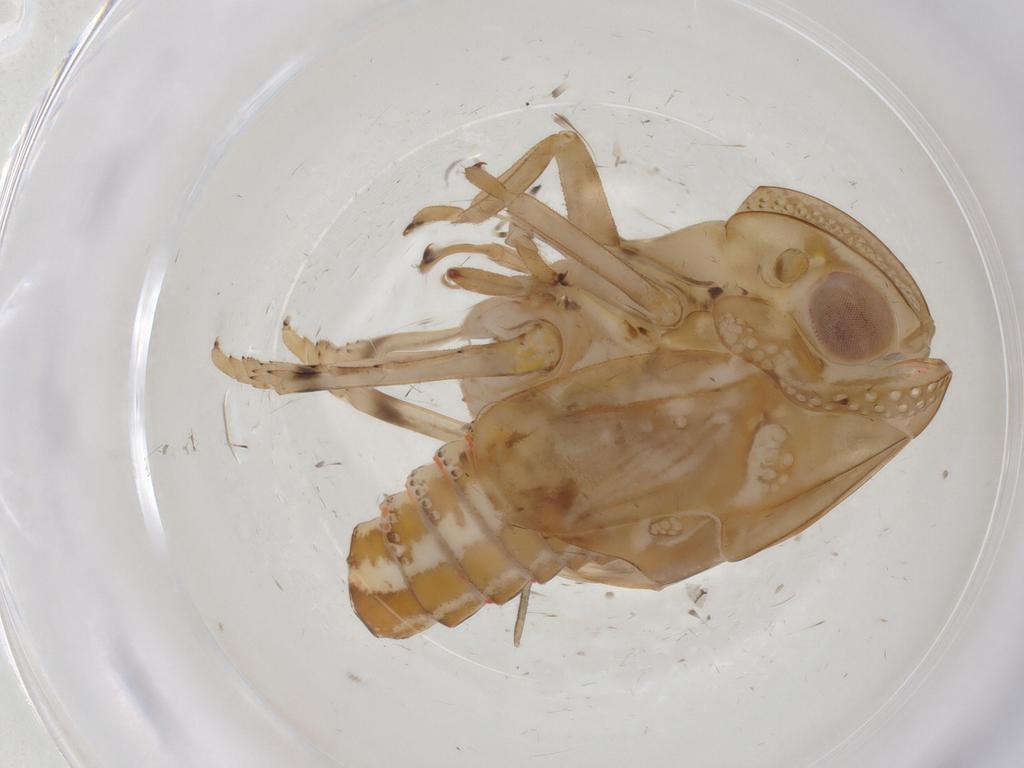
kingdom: Animalia
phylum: Arthropoda
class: Insecta
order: Hemiptera
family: Fulgoroidea_incertae_sedis
